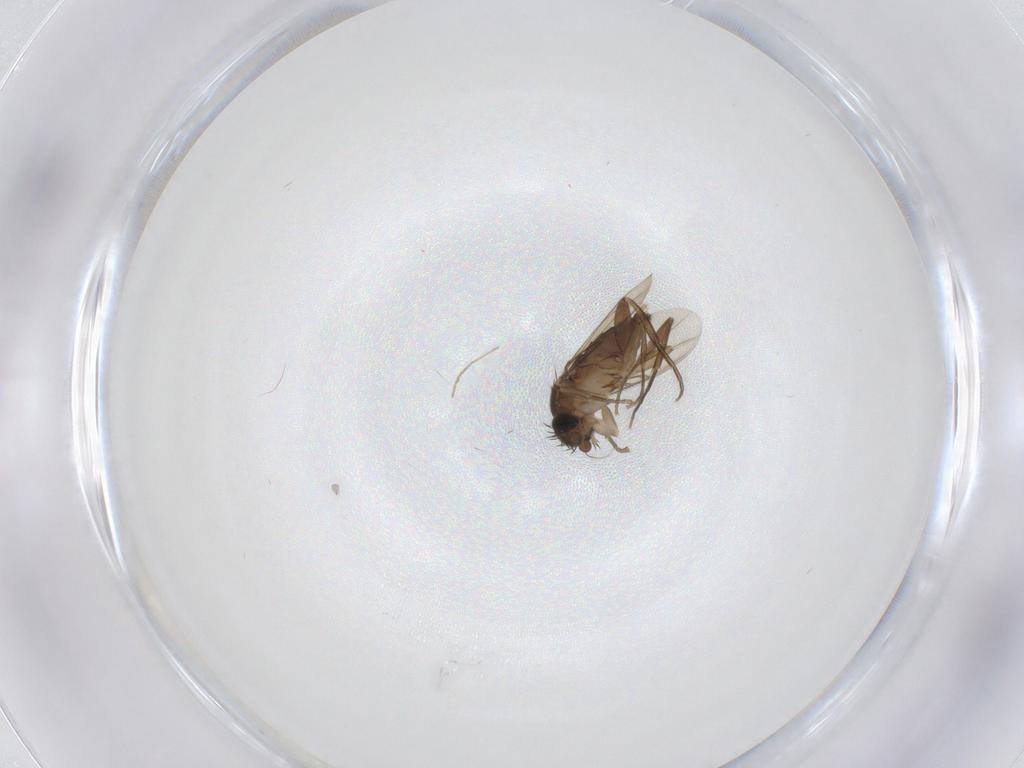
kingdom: Animalia
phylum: Arthropoda
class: Insecta
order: Diptera
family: Phoridae
